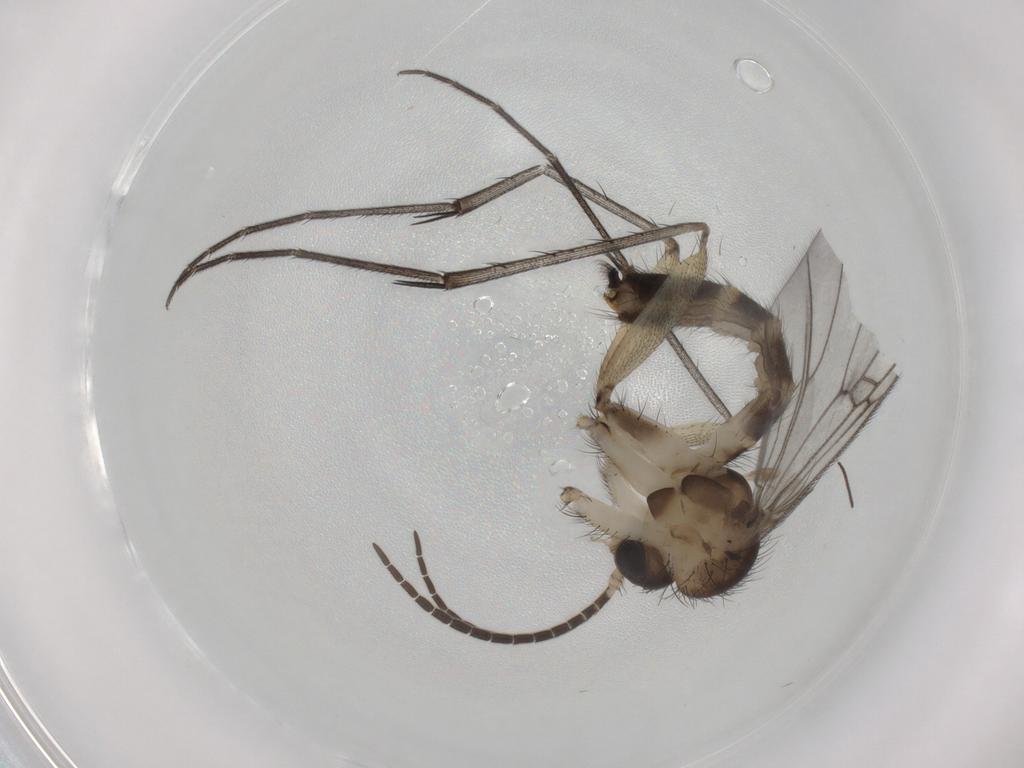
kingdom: Animalia
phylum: Arthropoda
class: Insecta
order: Diptera
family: Mycetophilidae
